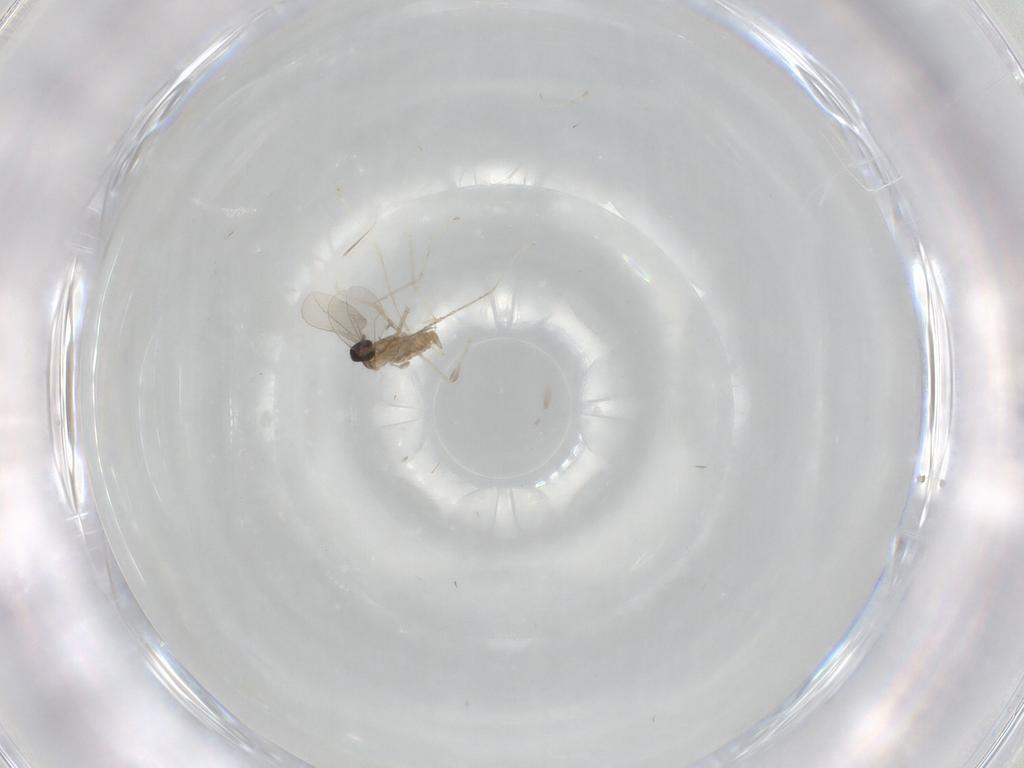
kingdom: Animalia
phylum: Arthropoda
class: Insecta
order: Diptera
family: Cecidomyiidae
